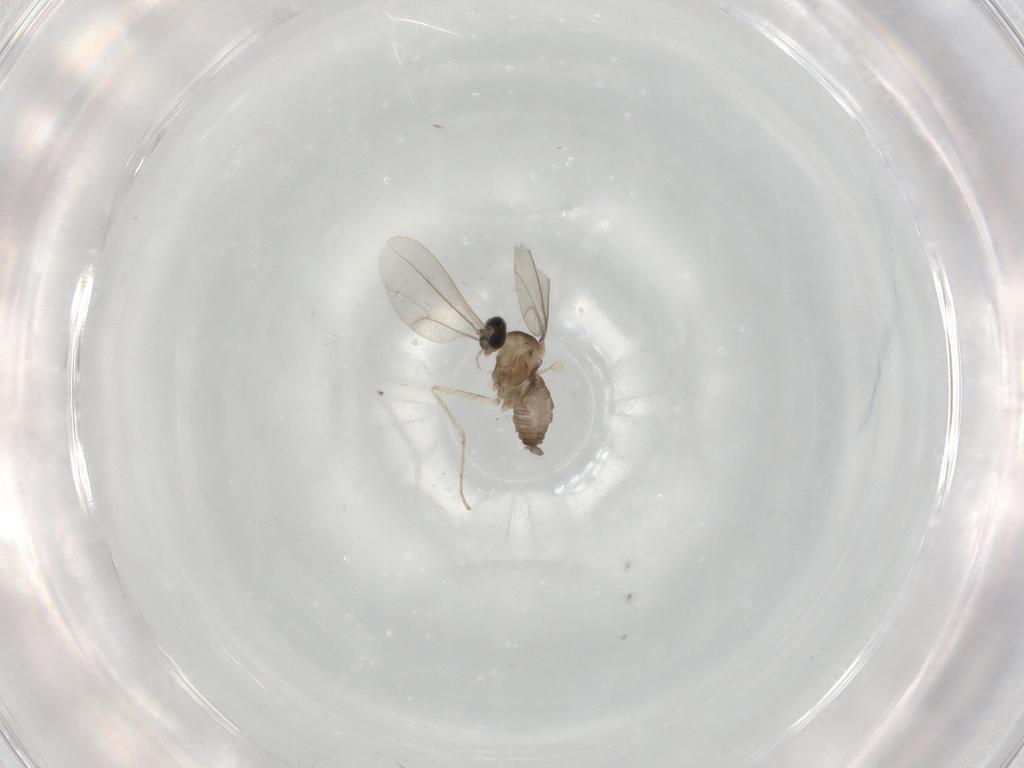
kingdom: Animalia
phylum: Arthropoda
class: Insecta
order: Diptera
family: Cecidomyiidae
